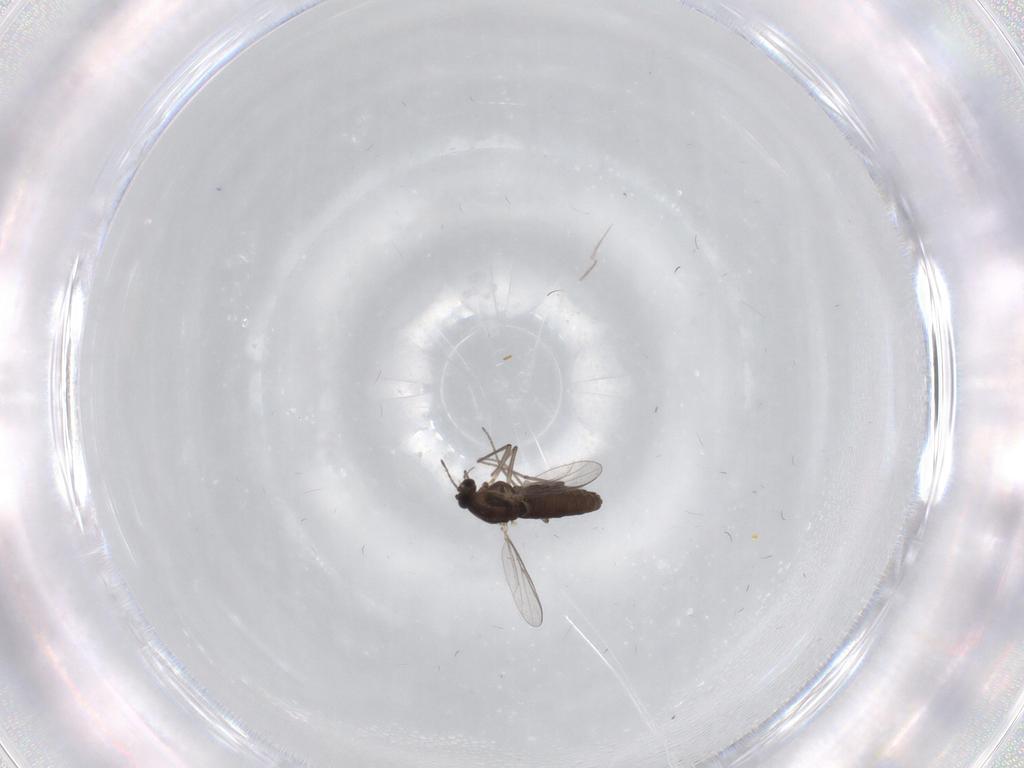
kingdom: Animalia
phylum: Arthropoda
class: Insecta
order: Diptera
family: Chironomidae
